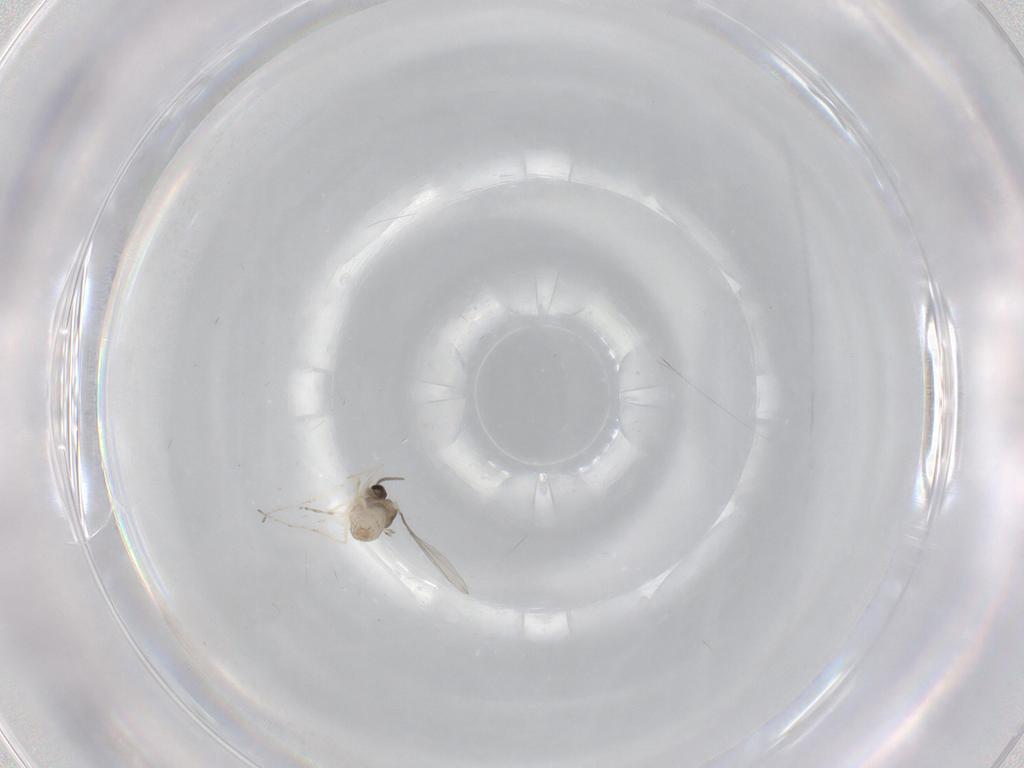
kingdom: Animalia
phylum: Arthropoda
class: Insecta
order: Diptera
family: Cecidomyiidae
